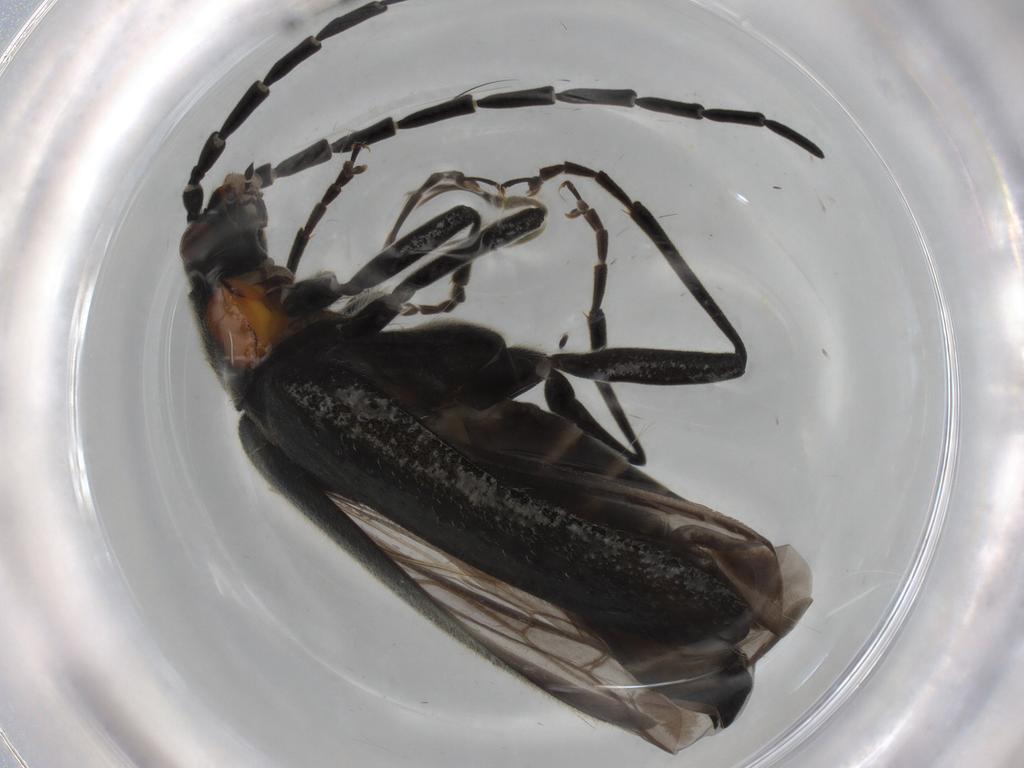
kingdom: Animalia
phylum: Arthropoda
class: Insecta
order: Coleoptera
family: Cantharidae
